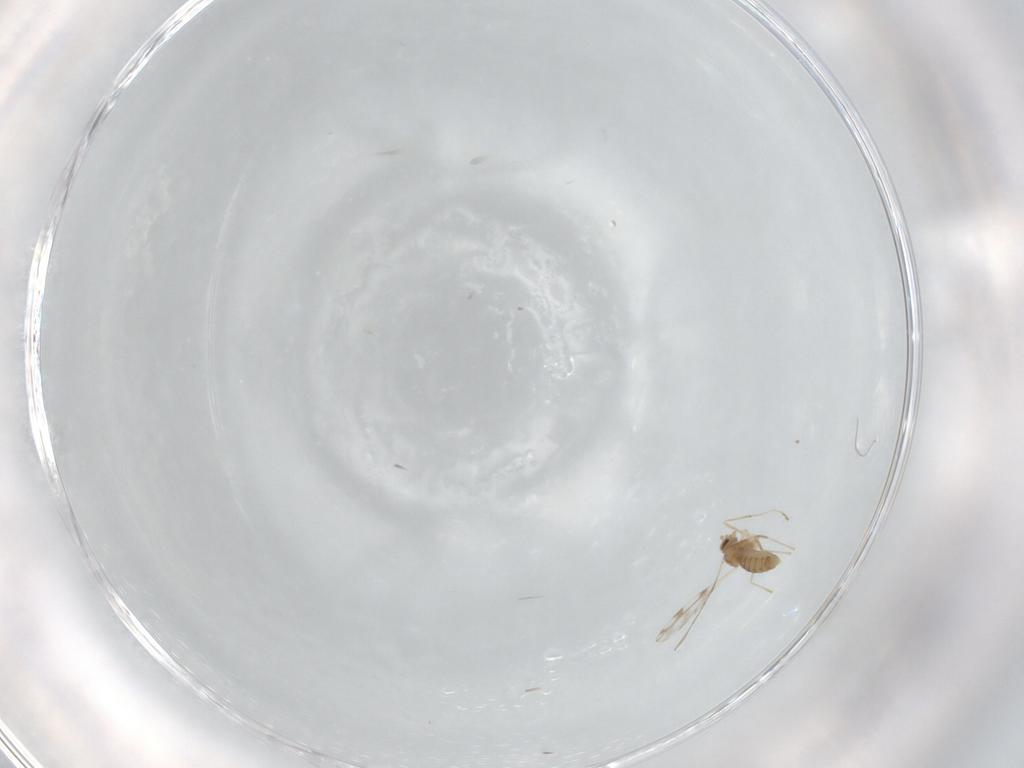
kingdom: Animalia
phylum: Arthropoda
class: Insecta
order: Diptera
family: Cecidomyiidae
